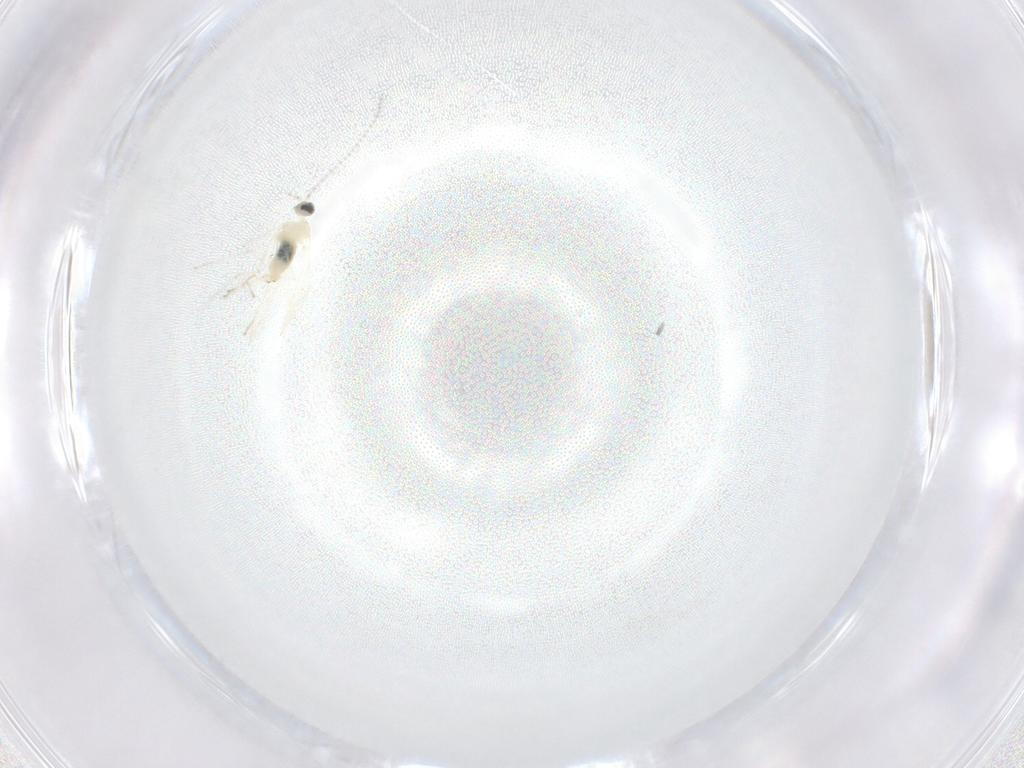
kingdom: Animalia
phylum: Arthropoda
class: Insecta
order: Diptera
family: Cecidomyiidae
